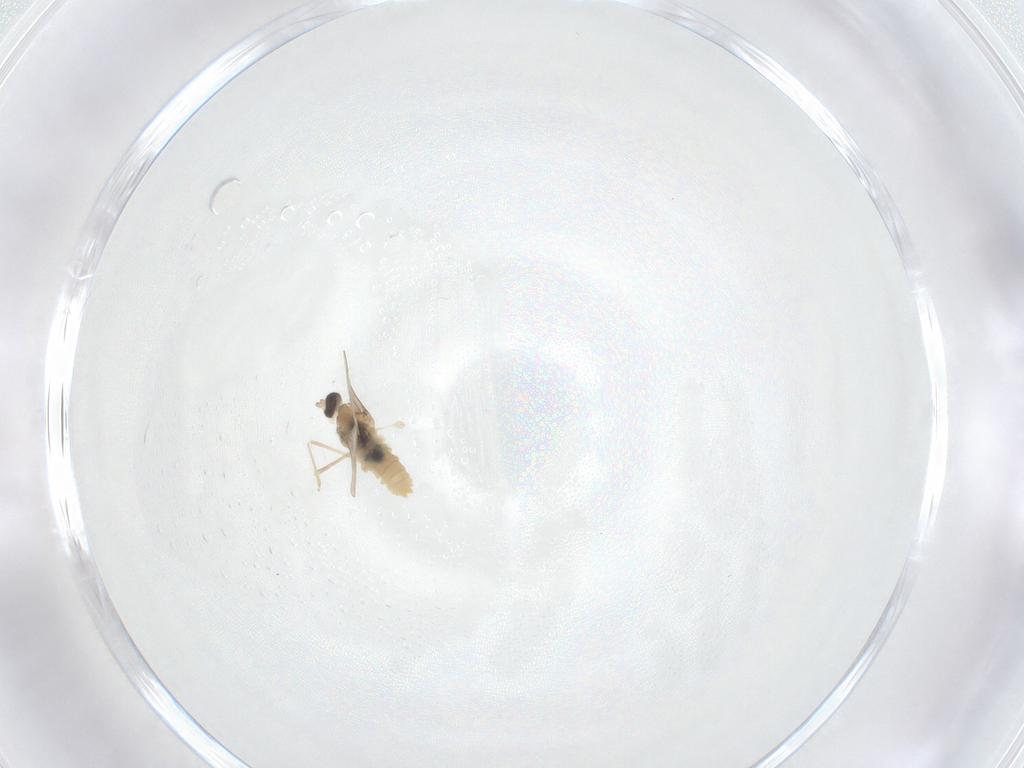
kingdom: Animalia
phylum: Arthropoda
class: Insecta
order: Diptera
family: Cecidomyiidae
